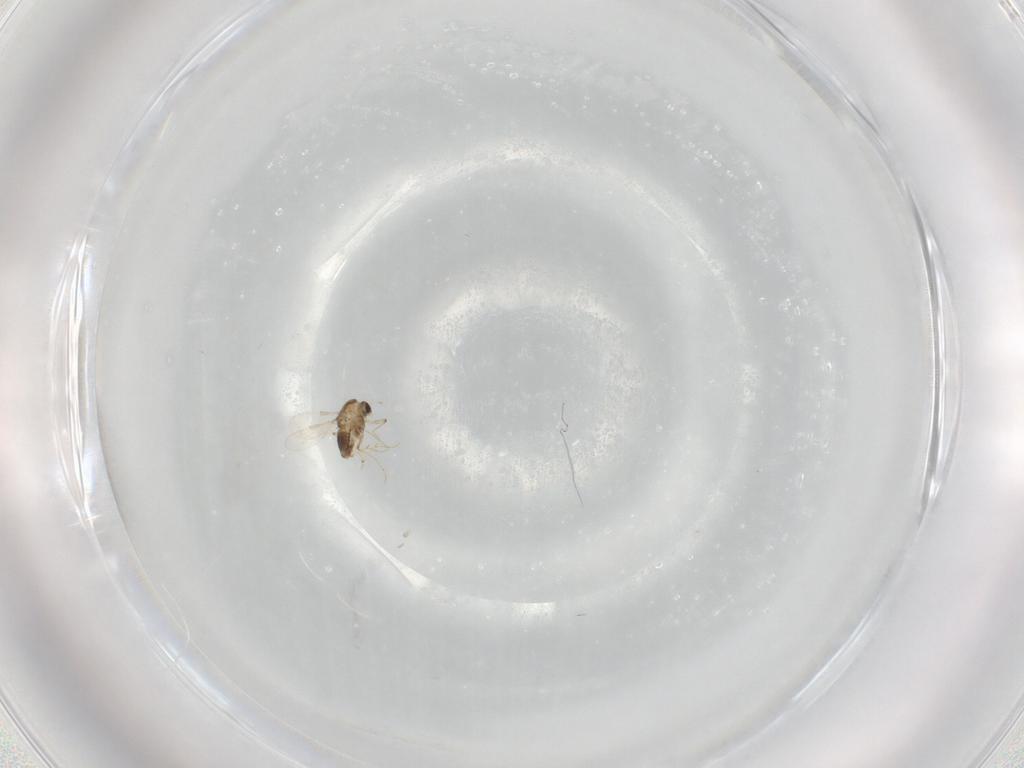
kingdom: Animalia
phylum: Arthropoda
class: Insecta
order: Diptera
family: Chironomidae
